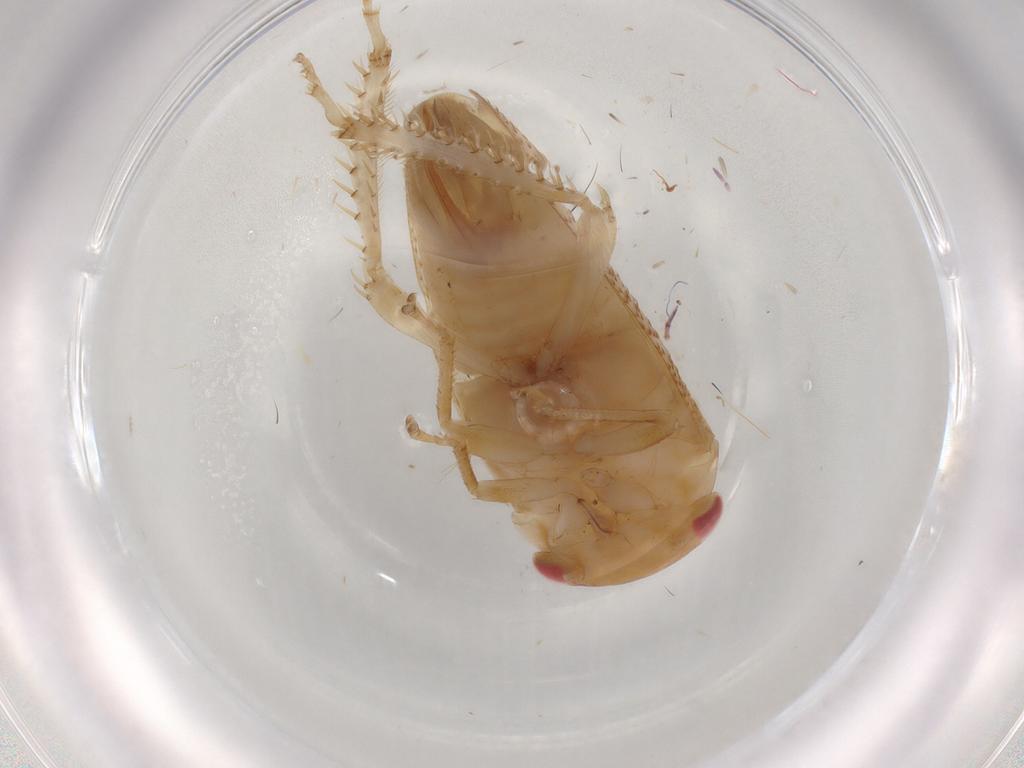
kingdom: Animalia
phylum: Arthropoda
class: Insecta
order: Hemiptera
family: Cicadellidae
